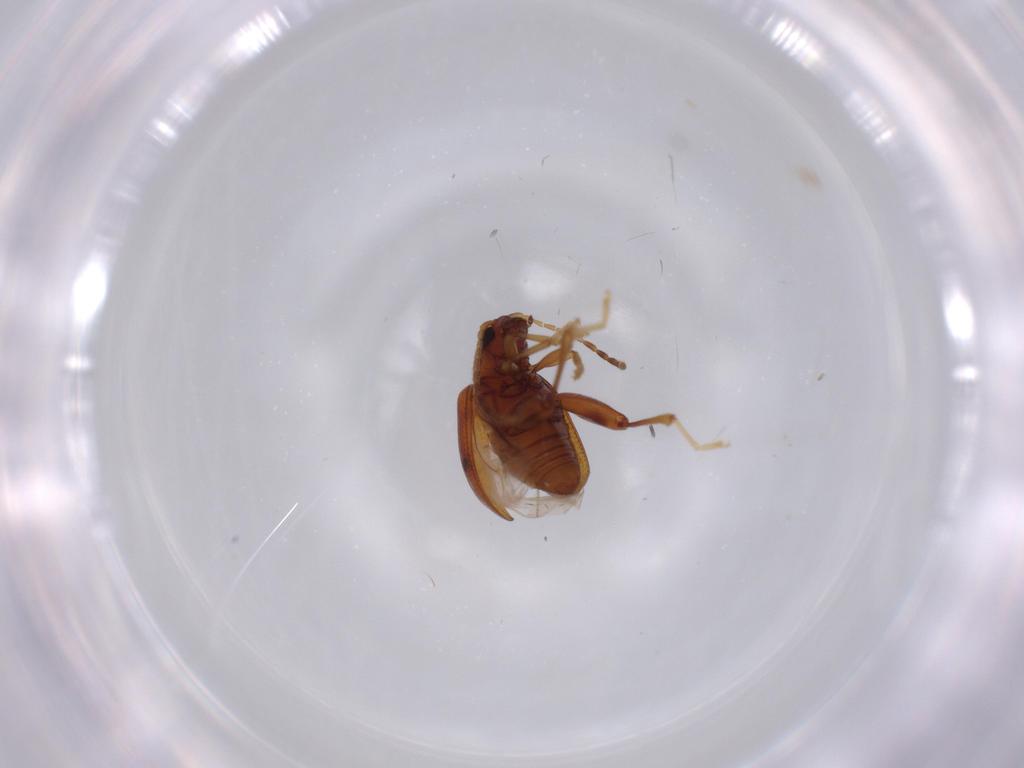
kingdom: Animalia
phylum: Arthropoda
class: Insecta
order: Coleoptera
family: Chrysomelidae
